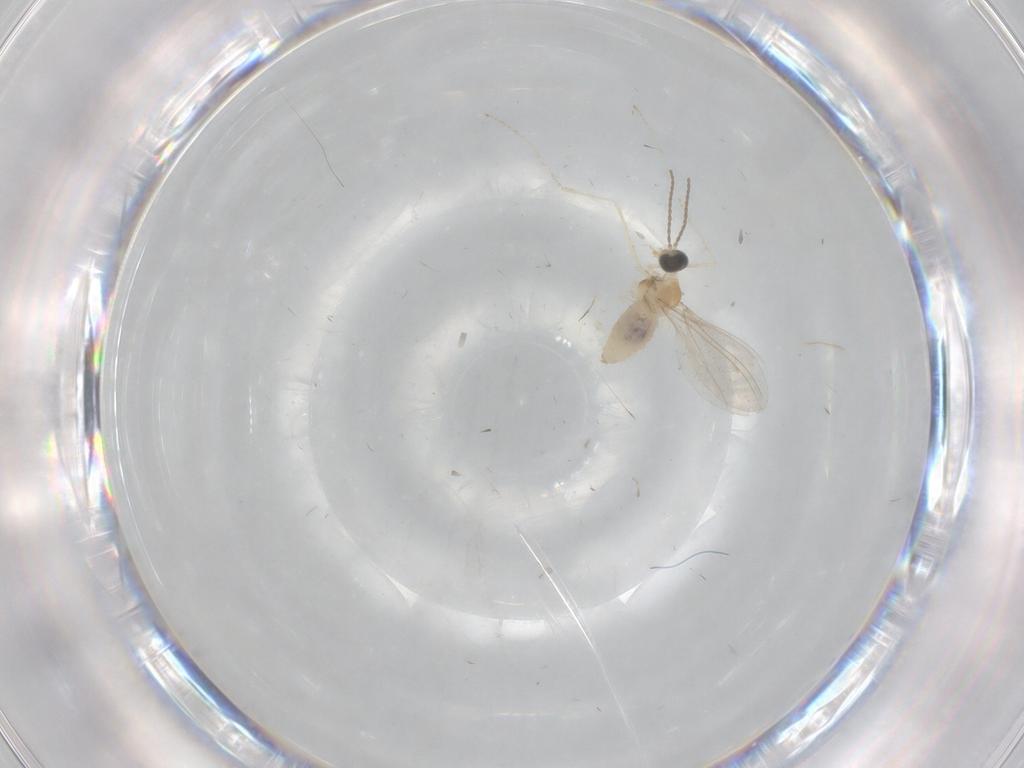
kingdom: Animalia
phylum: Arthropoda
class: Insecta
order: Diptera
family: Cecidomyiidae
